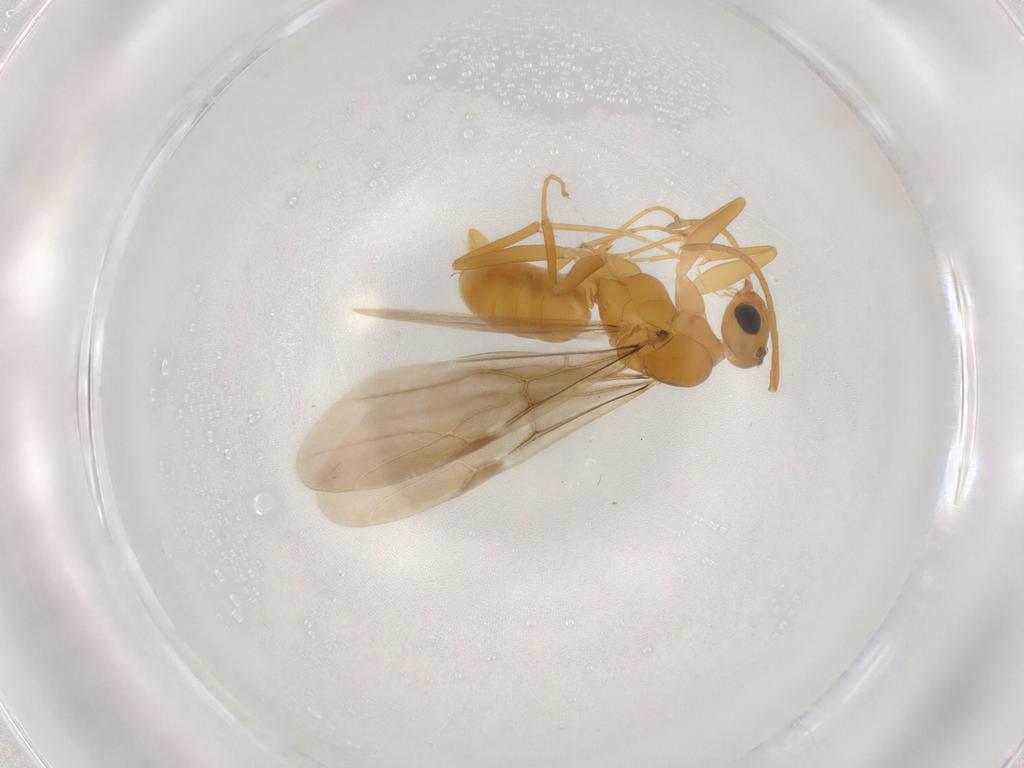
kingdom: Animalia
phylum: Arthropoda
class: Insecta
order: Hymenoptera
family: Formicidae
